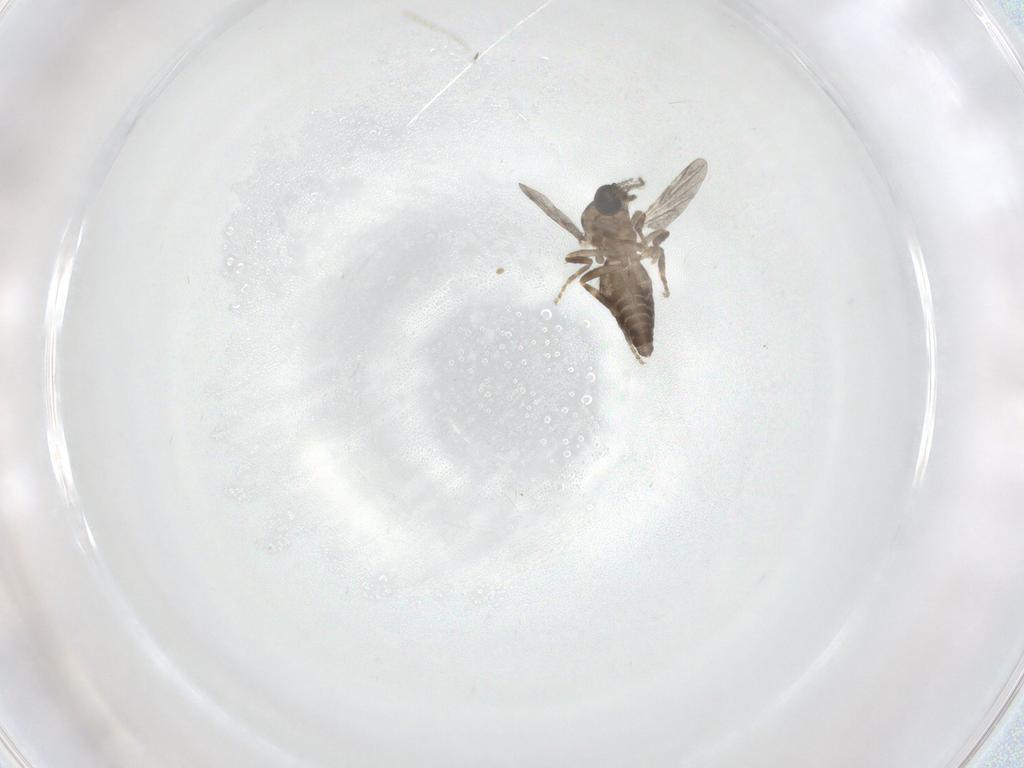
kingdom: Animalia
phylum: Arthropoda
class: Insecta
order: Diptera
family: Ceratopogonidae
